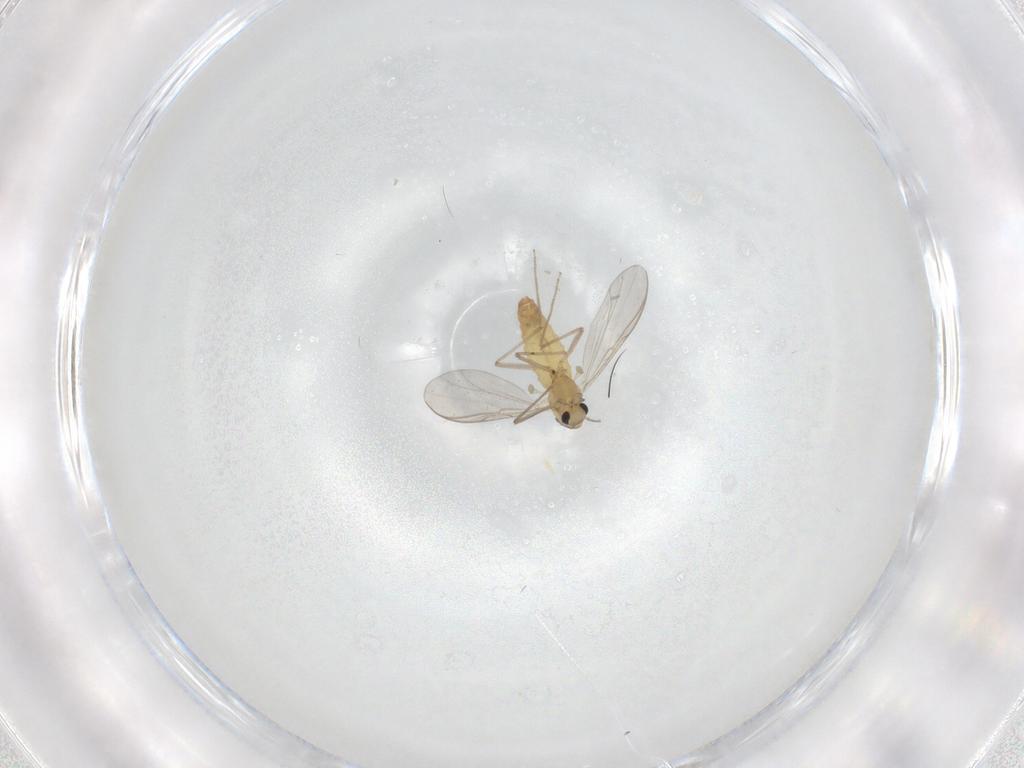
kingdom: Animalia
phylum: Arthropoda
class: Insecta
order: Diptera
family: Chironomidae
